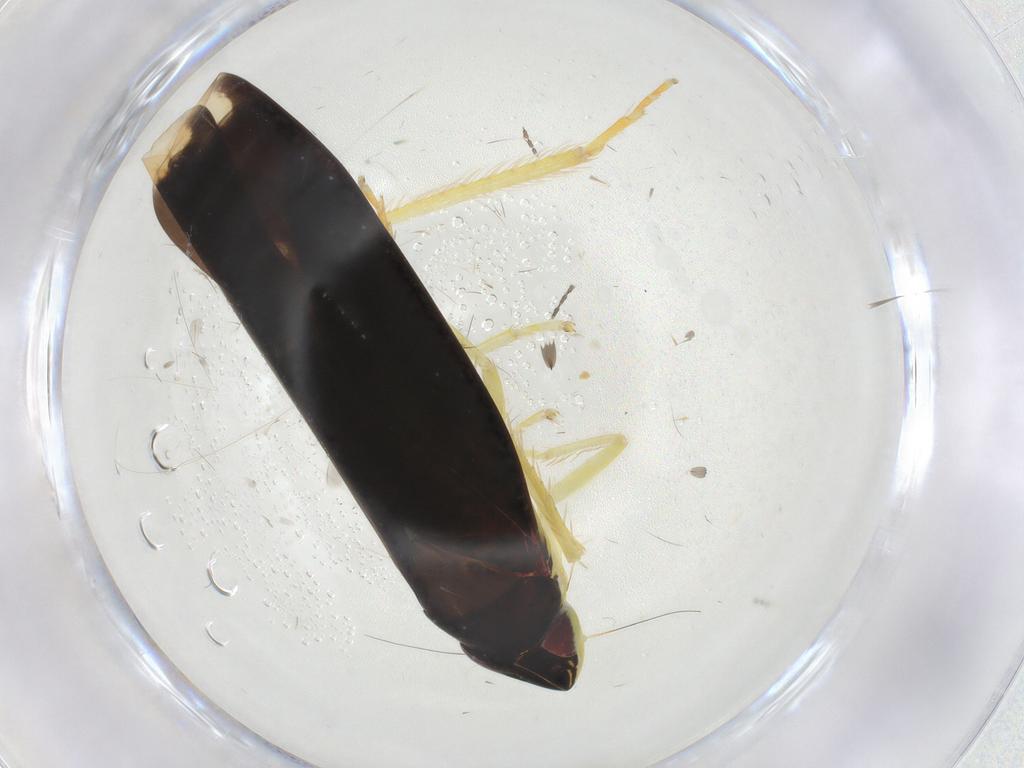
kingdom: Animalia
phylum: Arthropoda
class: Insecta
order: Hemiptera
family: Cicadellidae
